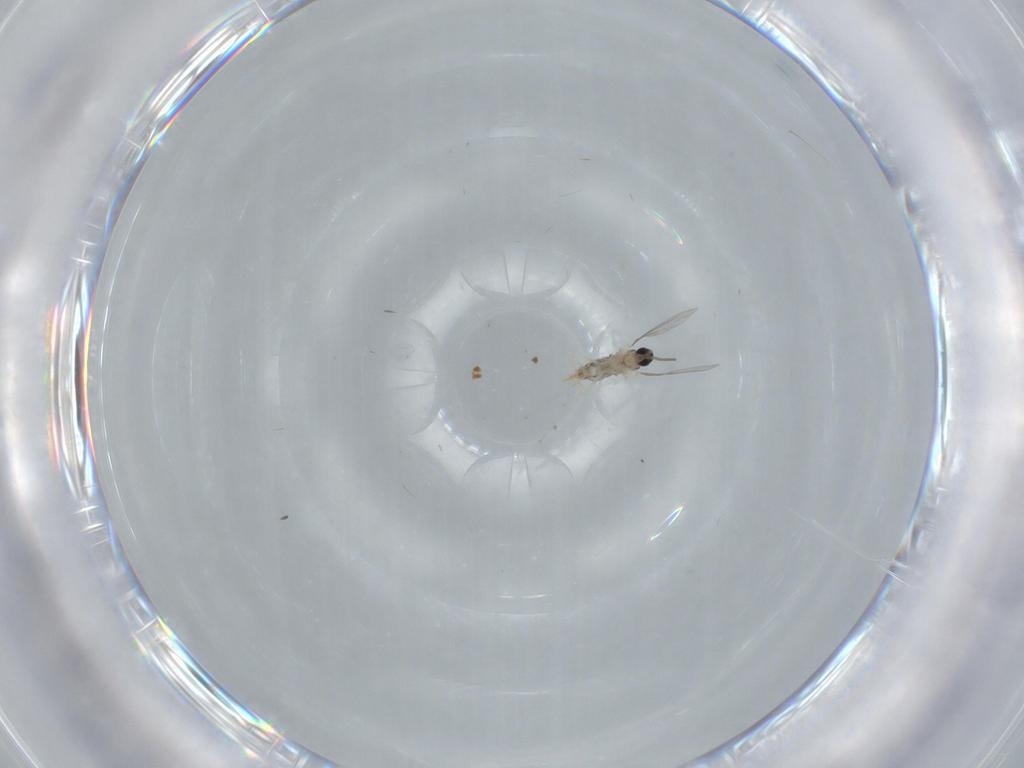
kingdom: Animalia
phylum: Arthropoda
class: Insecta
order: Diptera
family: Cecidomyiidae
